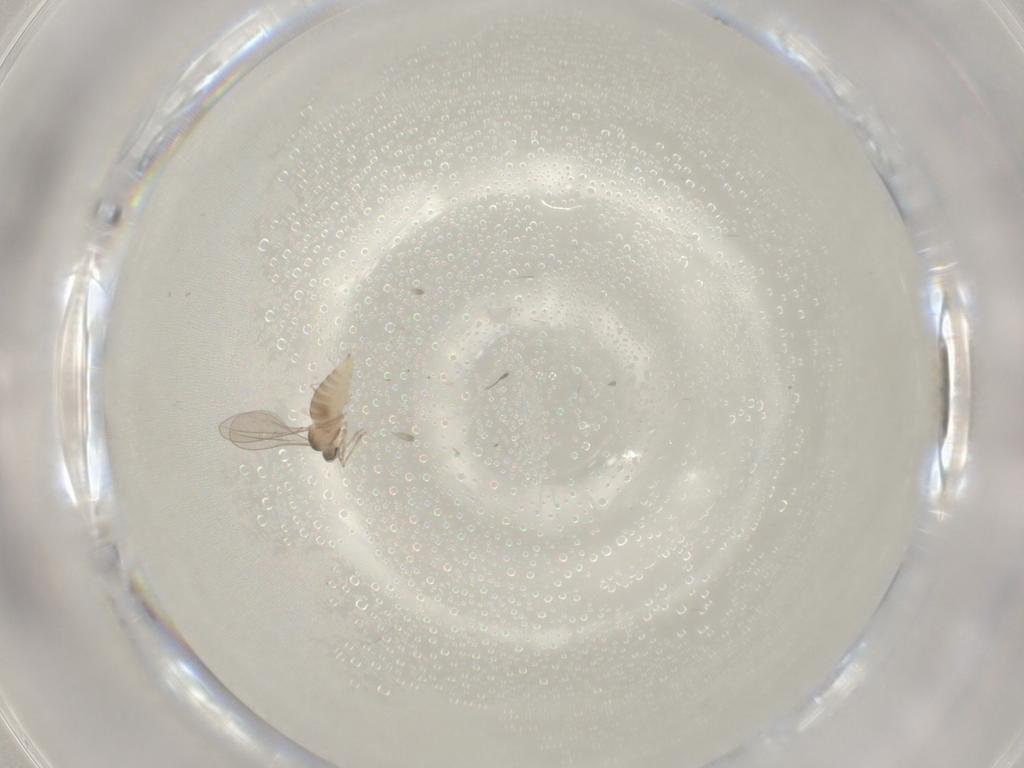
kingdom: Animalia
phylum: Arthropoda
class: Insecta
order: Diptera
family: Cecidomyiidae
